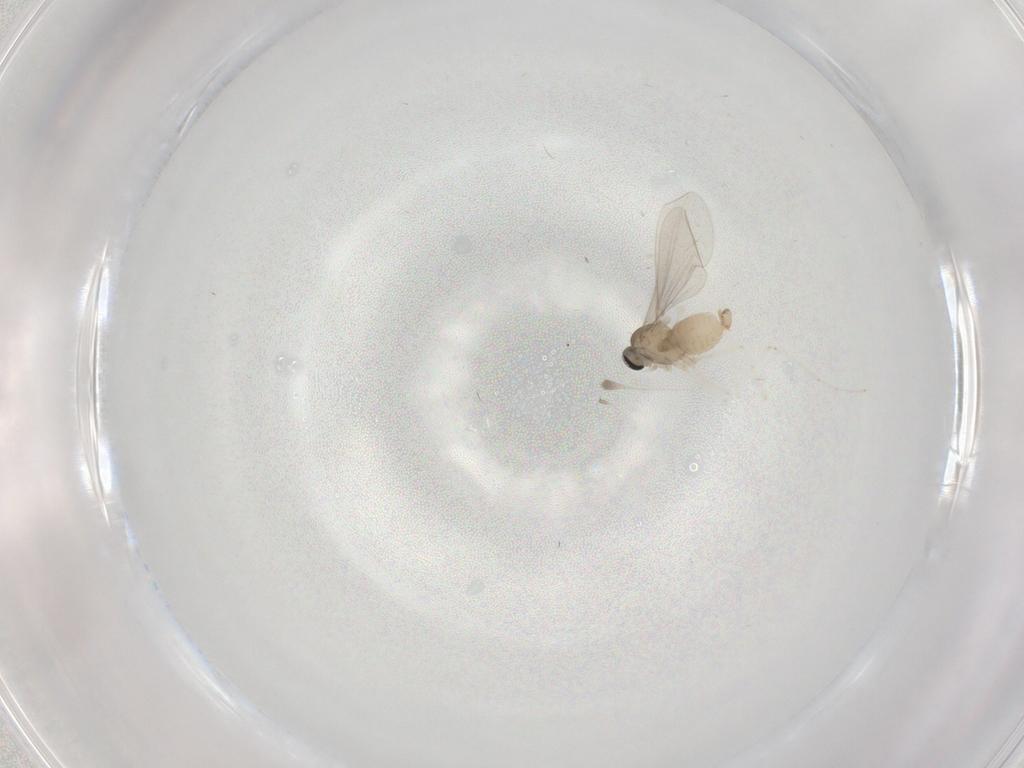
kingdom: Animalia
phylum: Arthropoda
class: Insecta
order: Diptera
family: Cecidomyiidae
